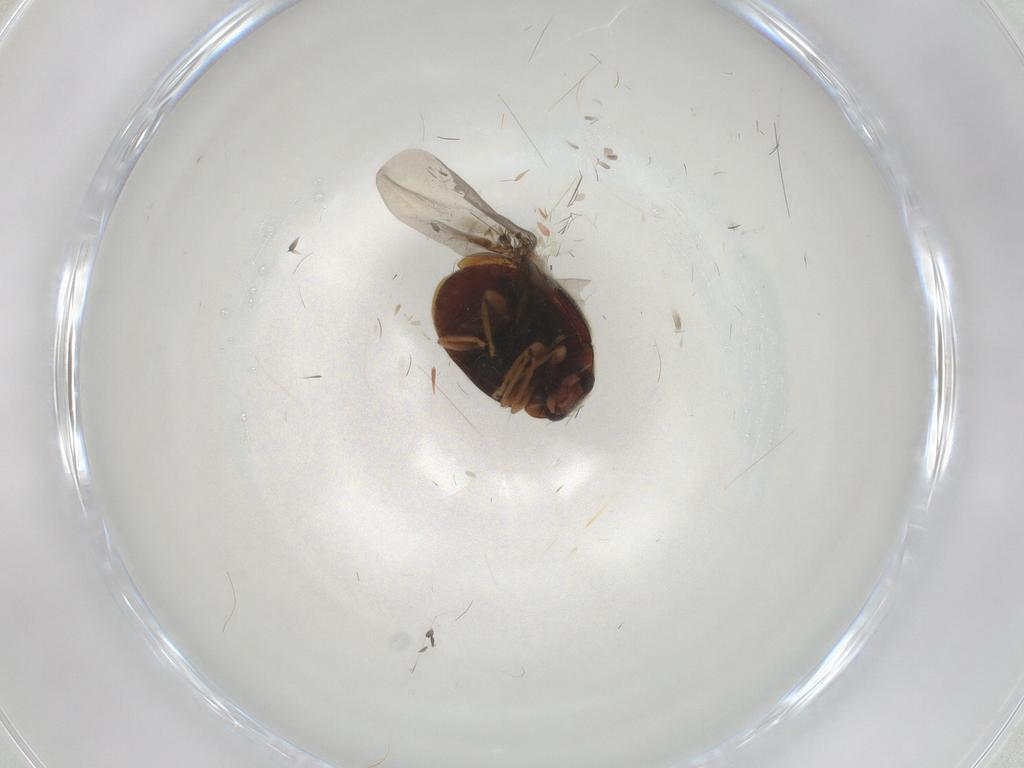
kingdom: Animalia
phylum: Arthropoda
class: Insecta
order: Coleoptera
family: Coccinellidae
